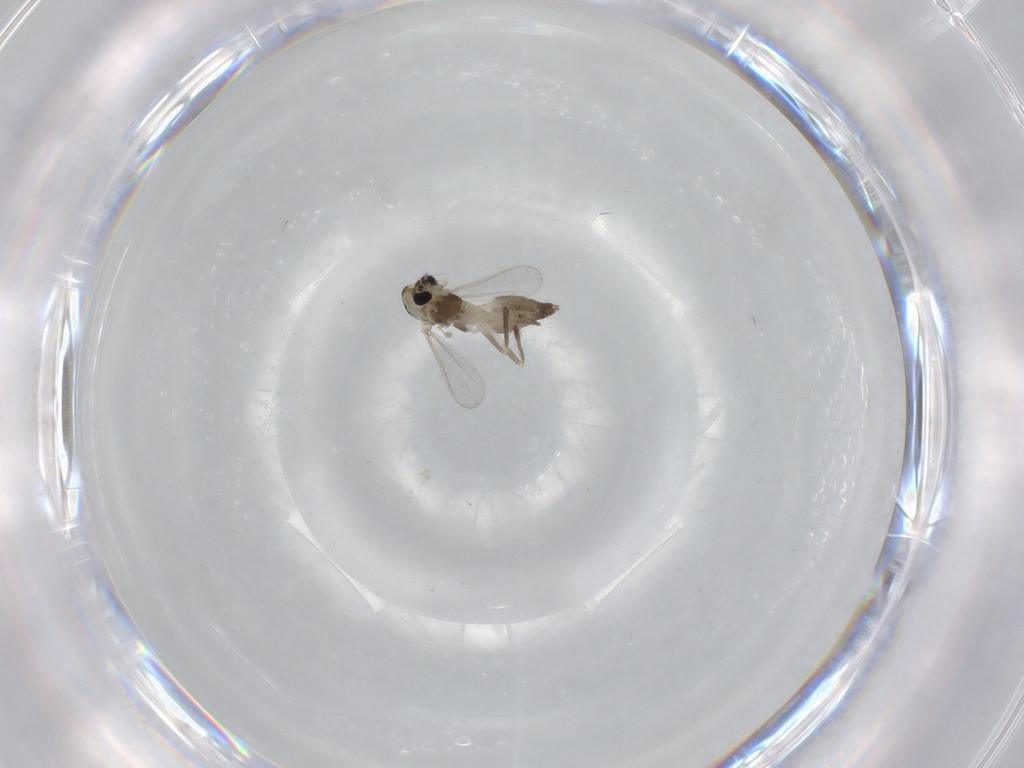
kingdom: Animalia
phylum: Arthropoda
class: Insecta
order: Diptera
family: Chironomidae
